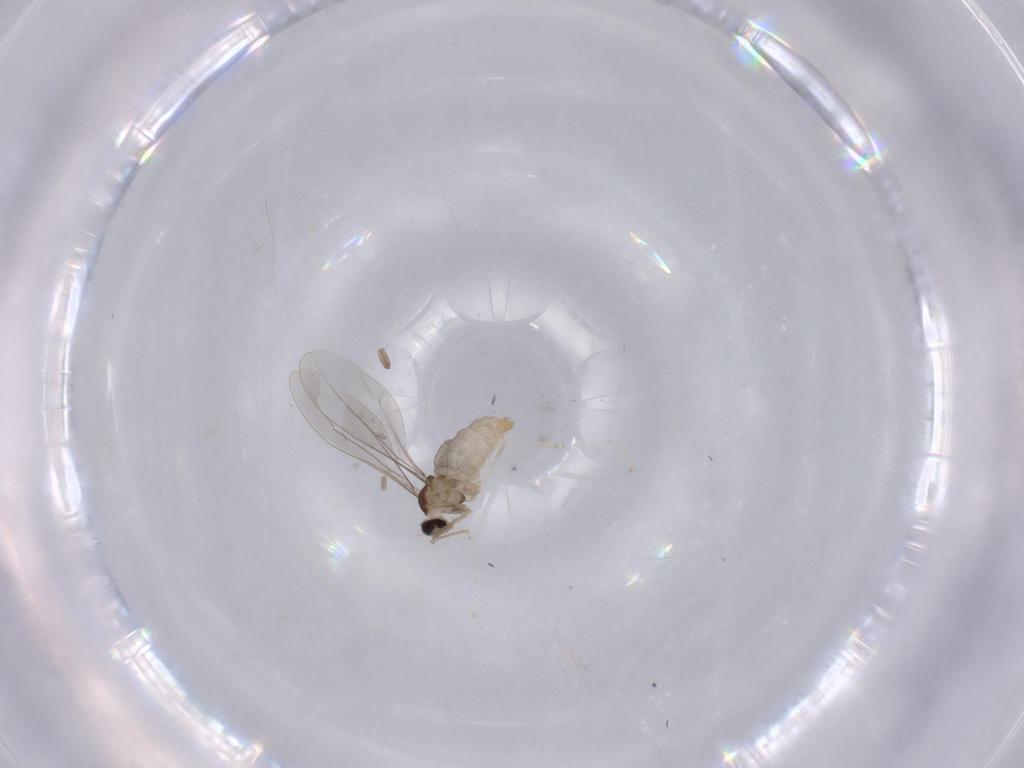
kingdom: Animalia
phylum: Arthropoda
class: Insecta
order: Diptera
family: Cecidomyiidae
